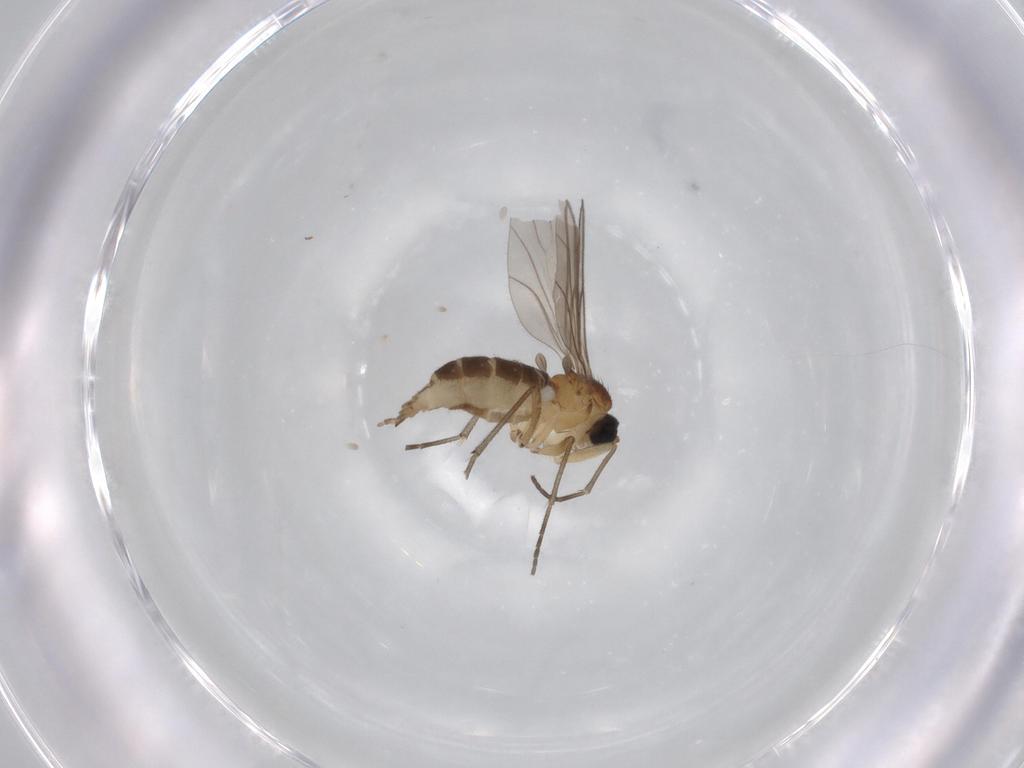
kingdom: Animalia
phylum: Arthropoda
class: Insecta
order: Diptera
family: Sciaridae
